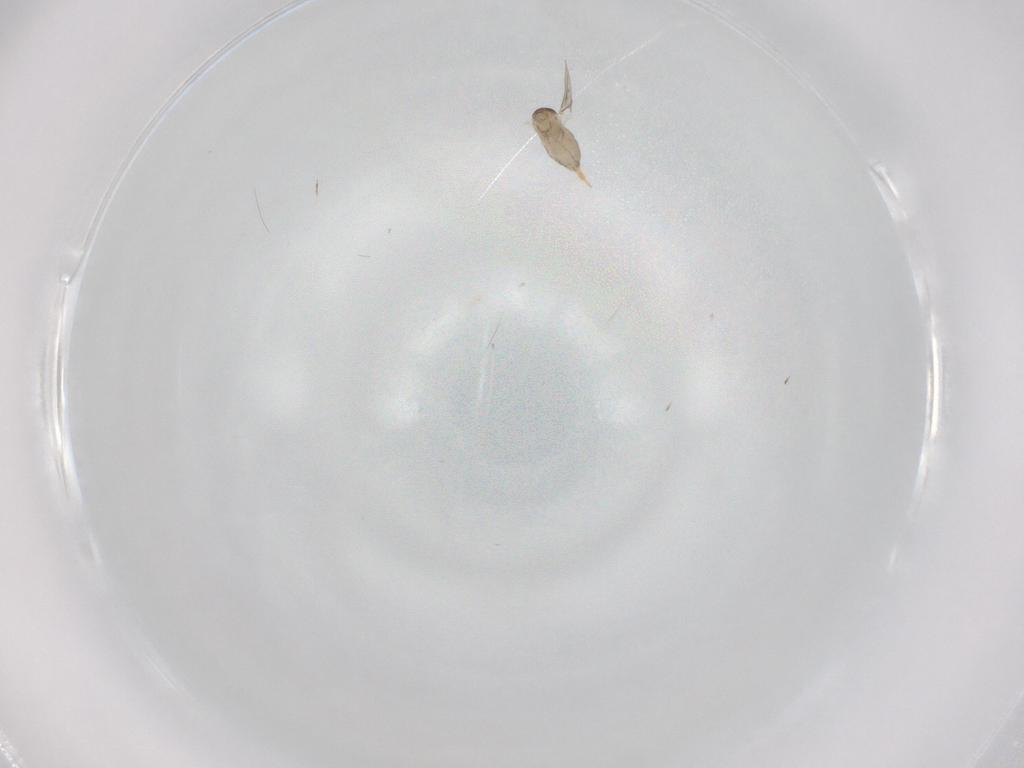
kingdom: Animalia
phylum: Arthropoda
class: Insecta
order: Diptera
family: Cecidomyiidae
